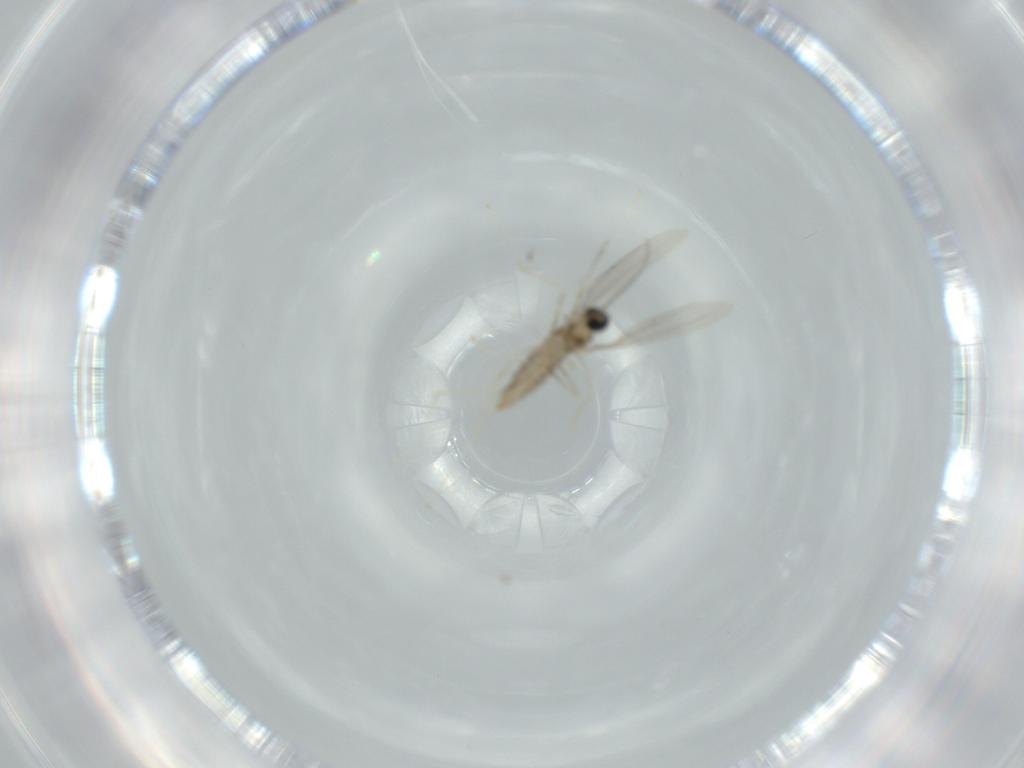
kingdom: Animalia
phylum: Arthropoda
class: Insecta
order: Diptera
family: Cecidomyiidae
